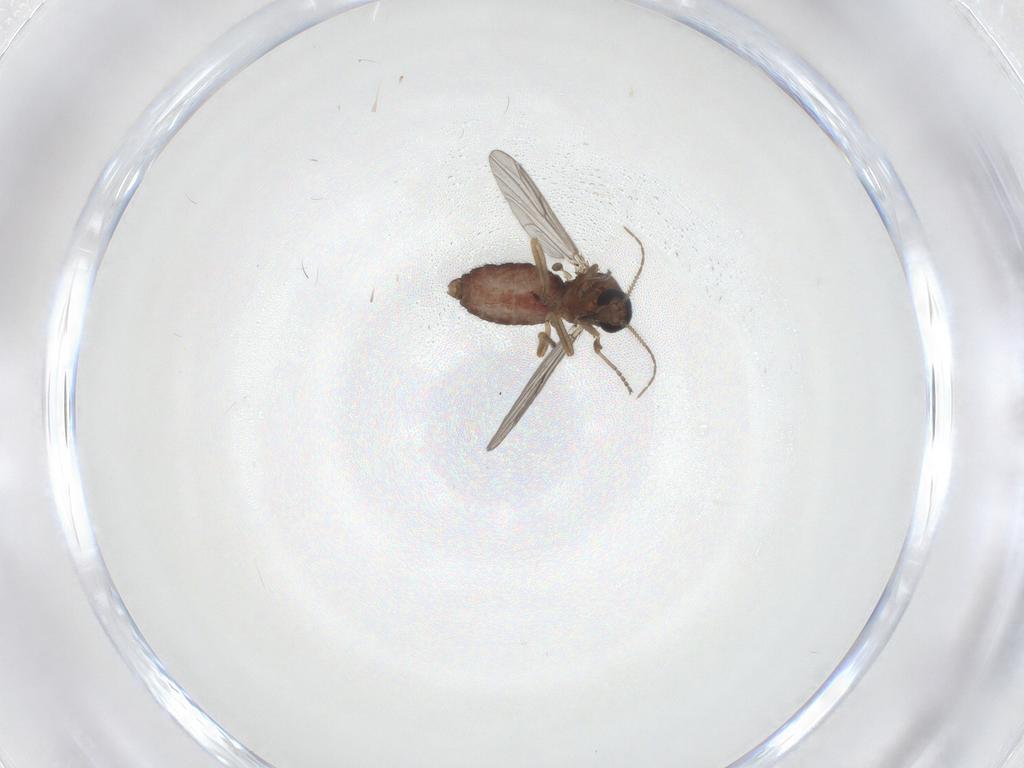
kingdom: Animalia
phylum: Arthropoda
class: Insecta
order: Diptera
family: Ceratopogonidae
